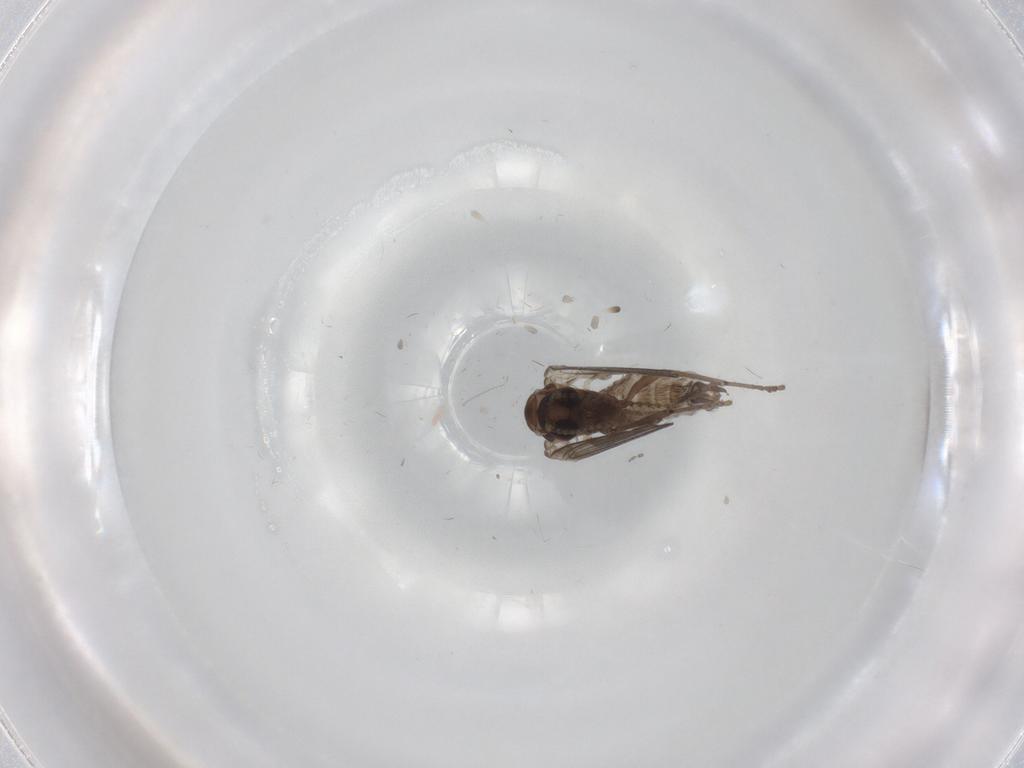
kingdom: Animalia
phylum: Arthropoda
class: Insecta
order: Diptera
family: Psychodidae
